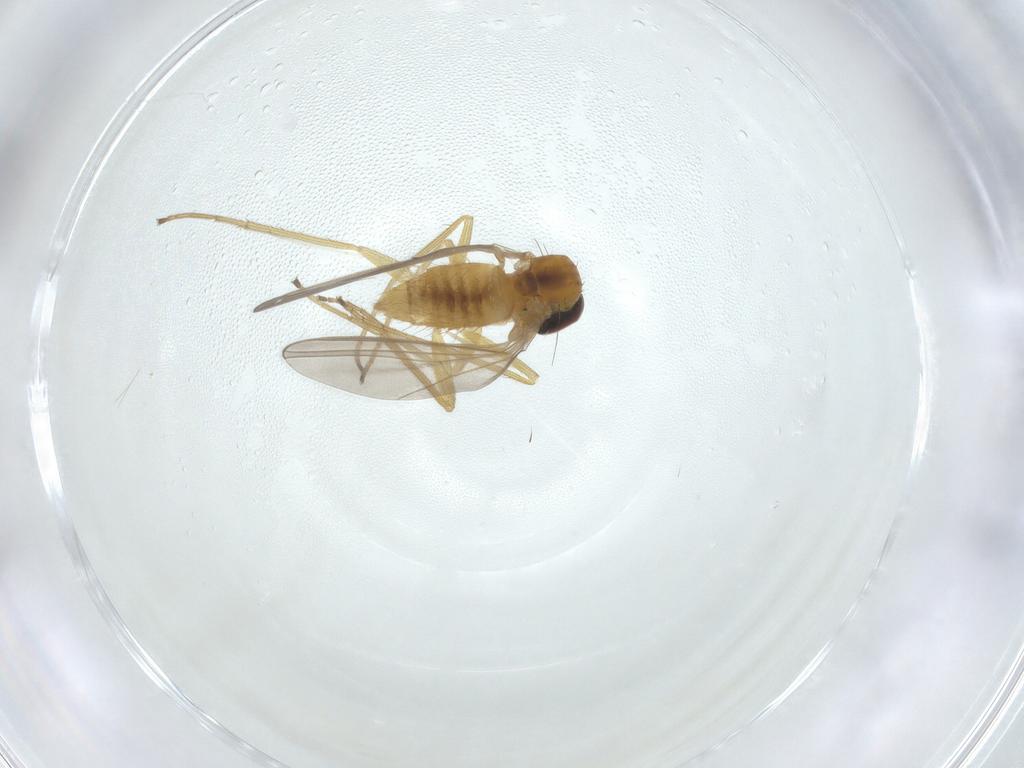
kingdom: Animalia
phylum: Arthropoda
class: Insecta
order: Diptera
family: Dolichopodidae
